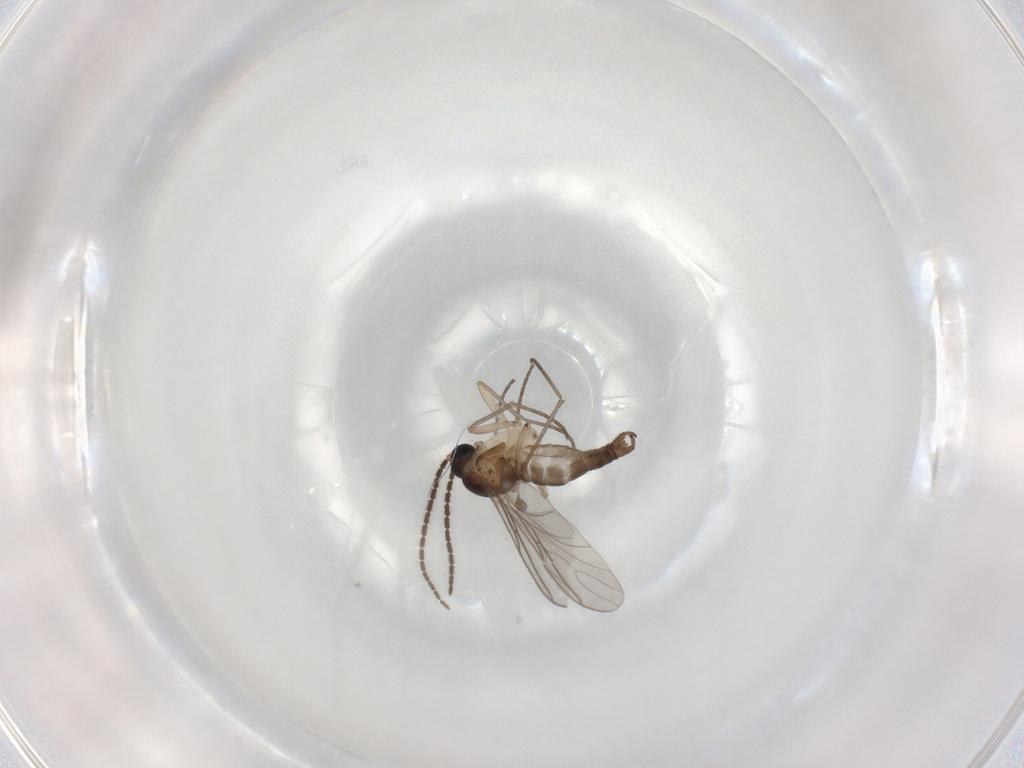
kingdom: Animalia
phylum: Arthropoda
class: Insecta
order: Diptera
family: Sciaridae
